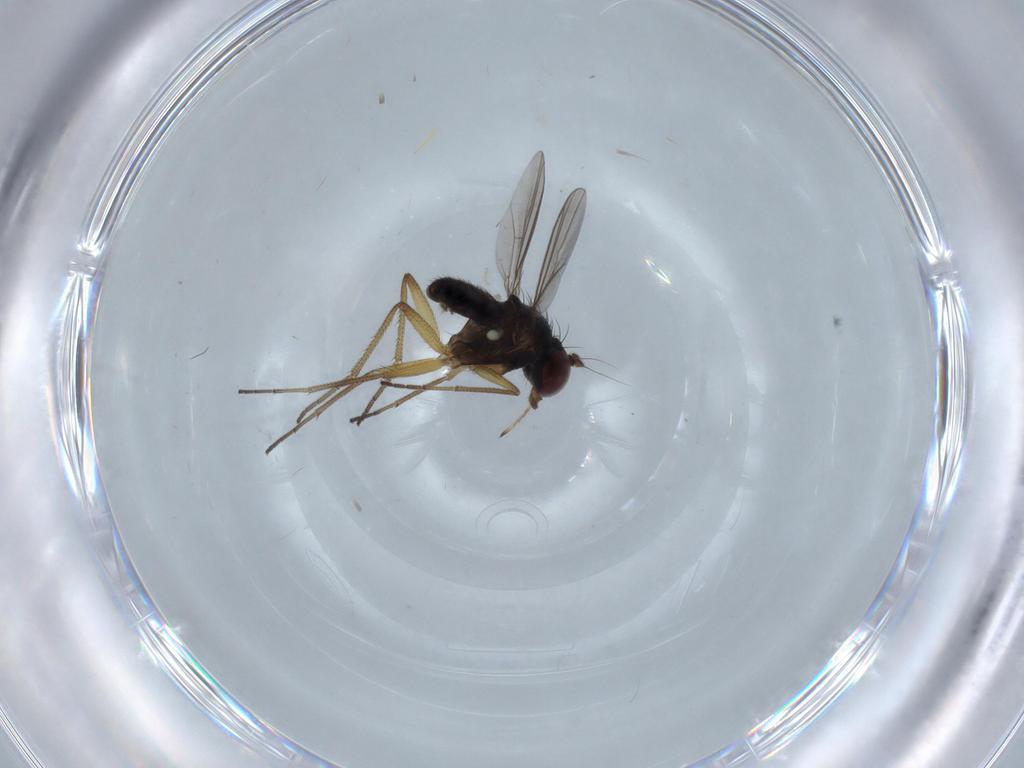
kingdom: Animalia
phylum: Arthropoda
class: Insecta
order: Diptera
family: Dolichopodidae
